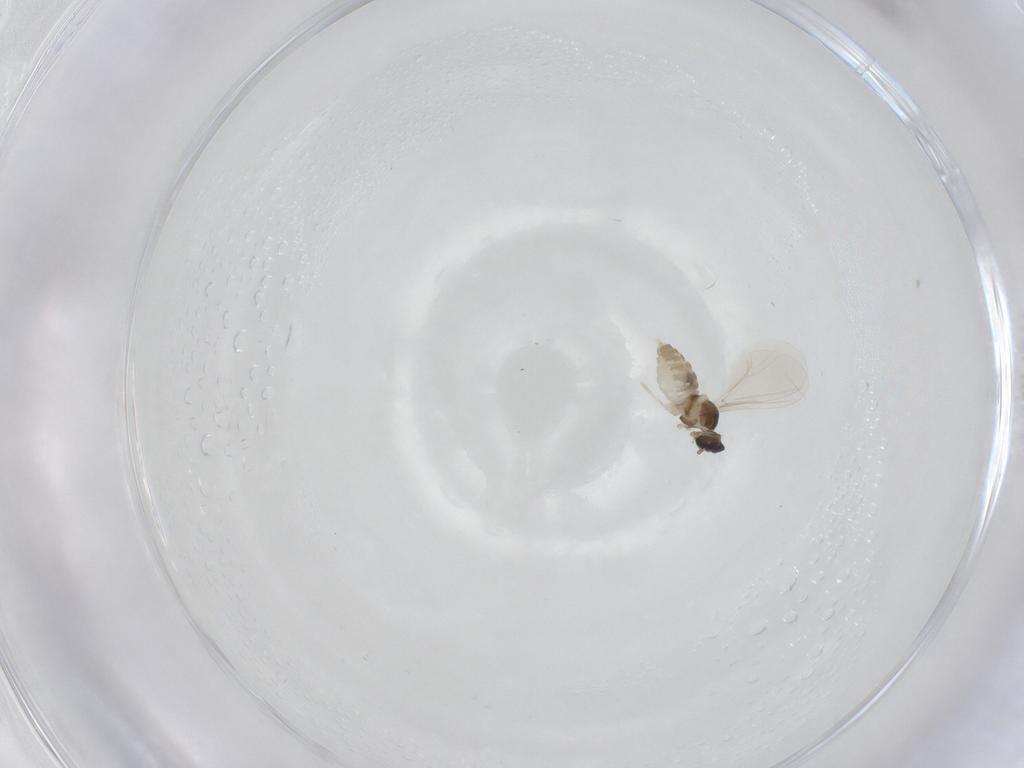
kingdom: Animalia
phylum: Arthropoda
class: Insecta
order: Diptera
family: Cecidomyiidae
